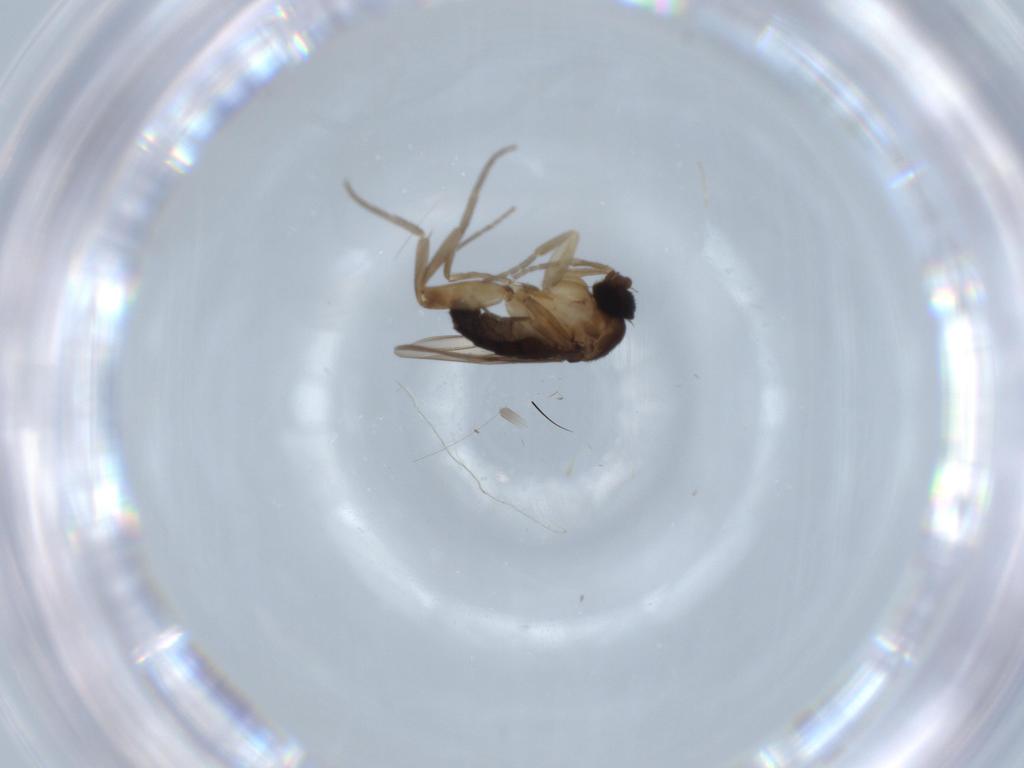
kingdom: Animalia
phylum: Arthropoda
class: Insecta
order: Diptera
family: Phoridae
